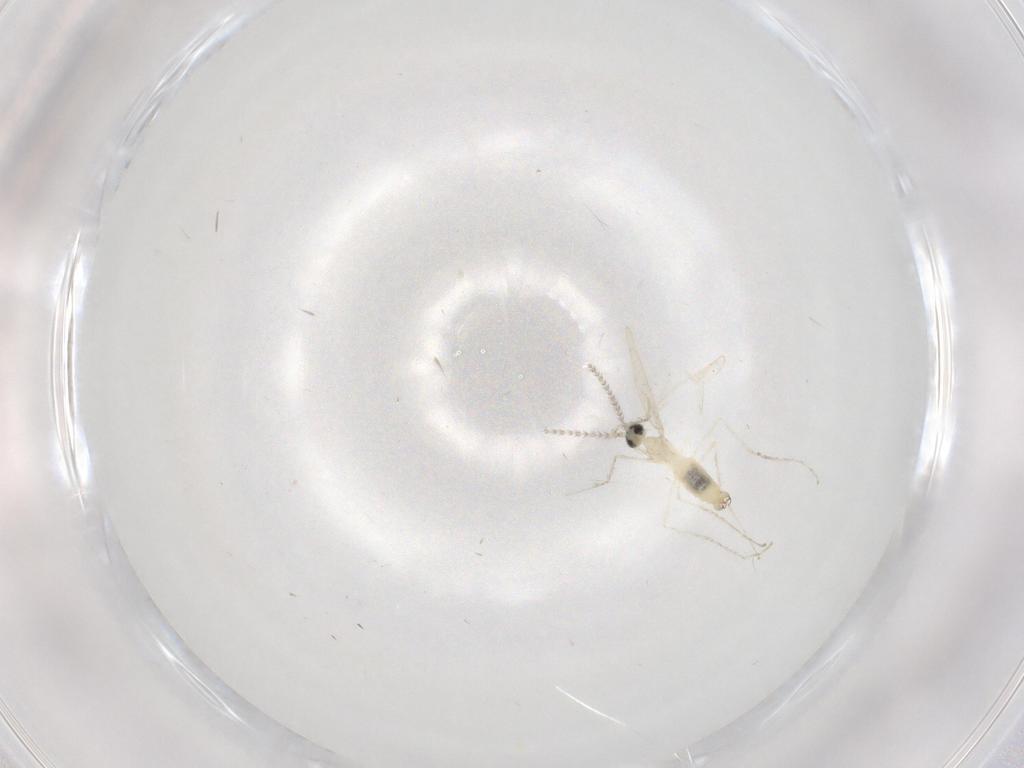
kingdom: Animalia
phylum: Arthropoda
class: Insecta
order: Diptera
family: Cecidomyiidae
